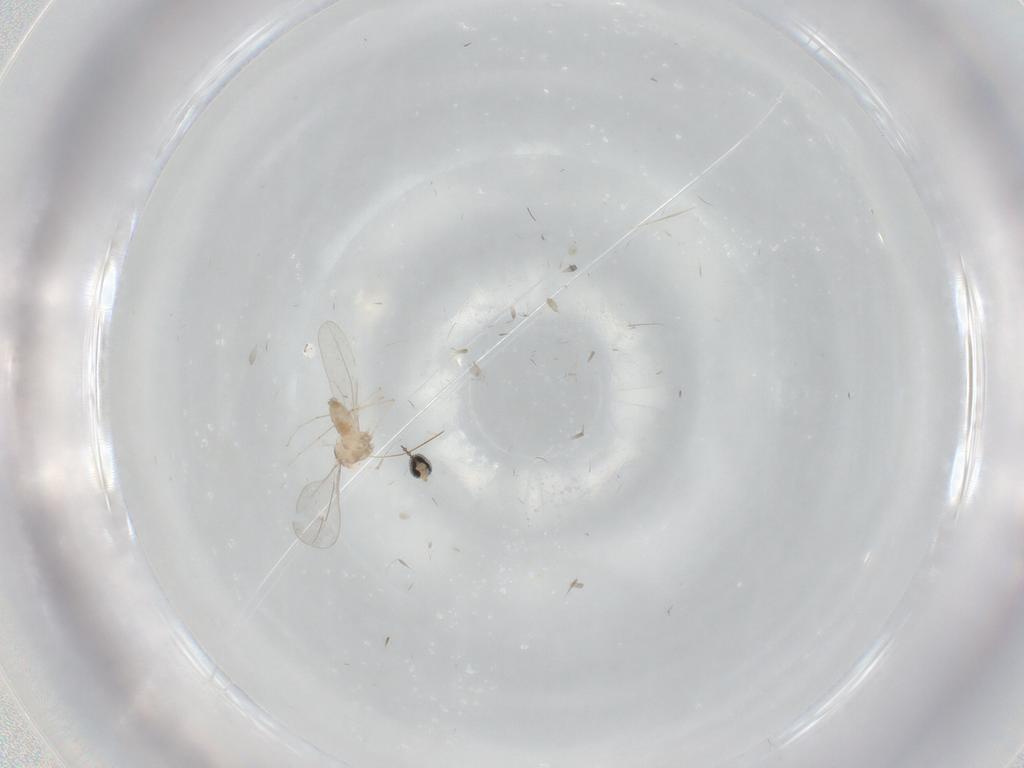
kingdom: Animalia
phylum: Arthropoda
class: Insecta
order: Diptera
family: Cecidomyiidae
